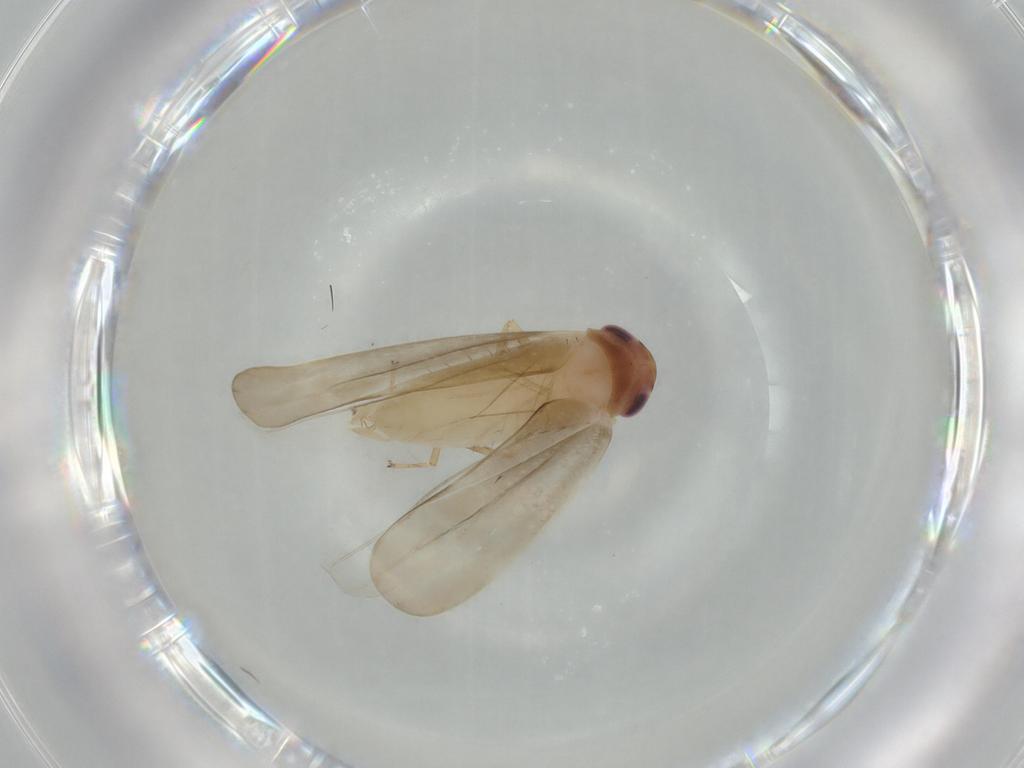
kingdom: Animalia
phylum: Arthropoda
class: Insecta
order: Hemiptera
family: Cicadellidae
